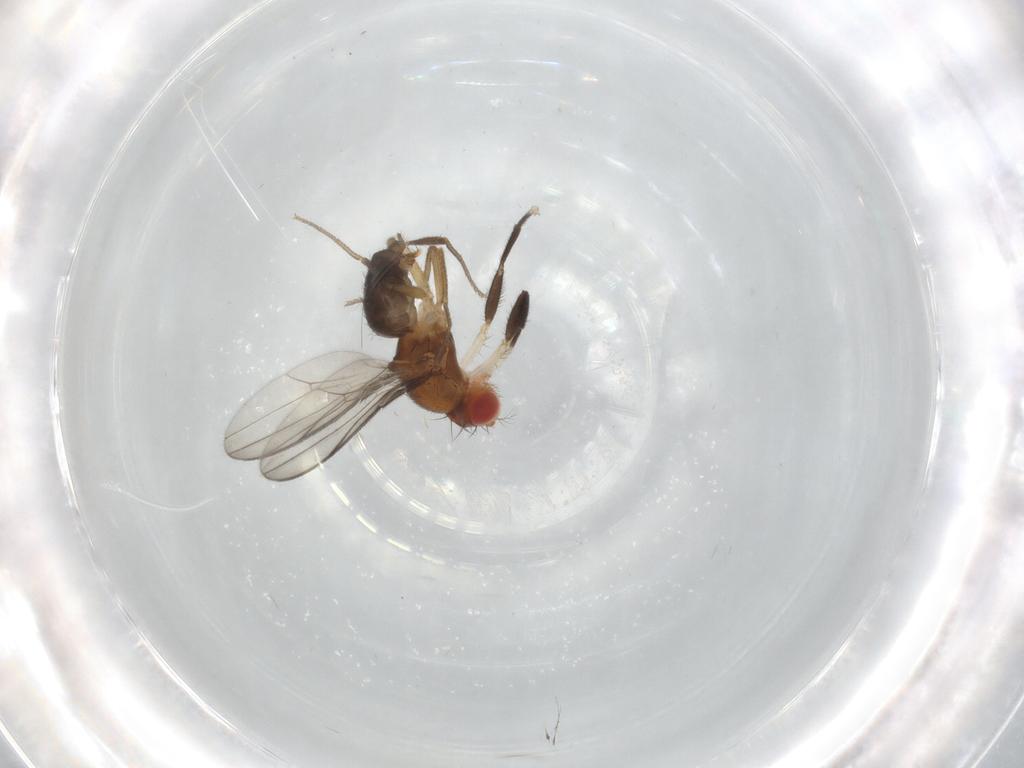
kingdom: Animalia
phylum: Arthropoda
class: Insecta
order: Diptera
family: Drosophilidae
